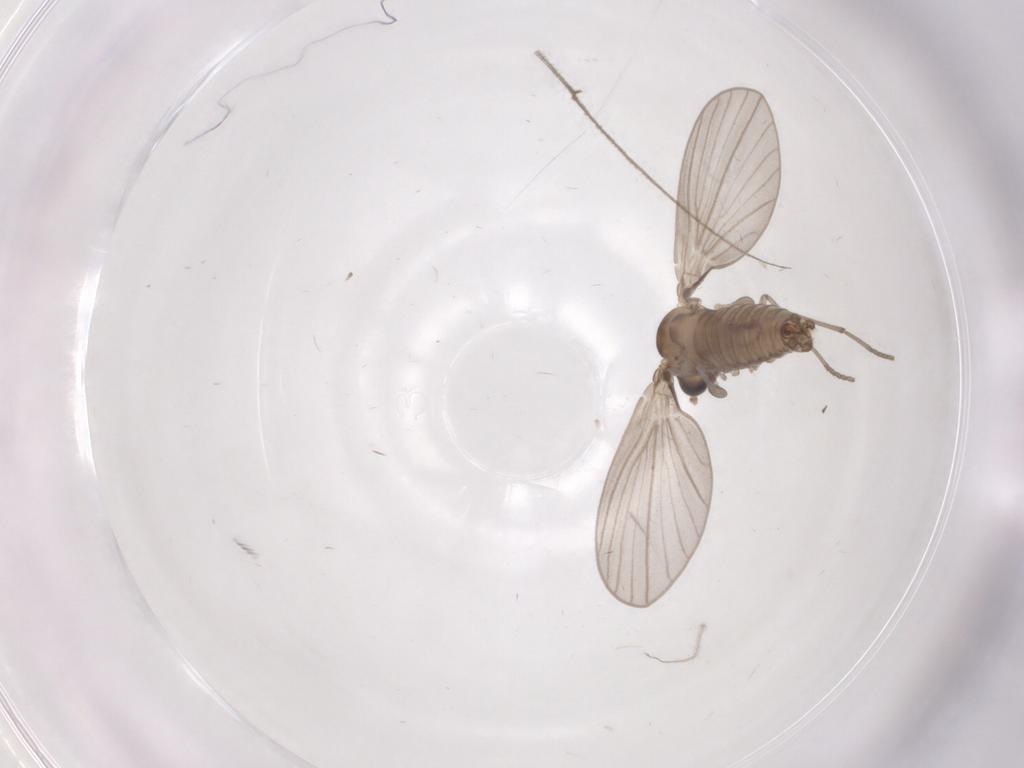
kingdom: Animalia
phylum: Arthropoda
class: Insecta
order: Diptera
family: Psychodidae
